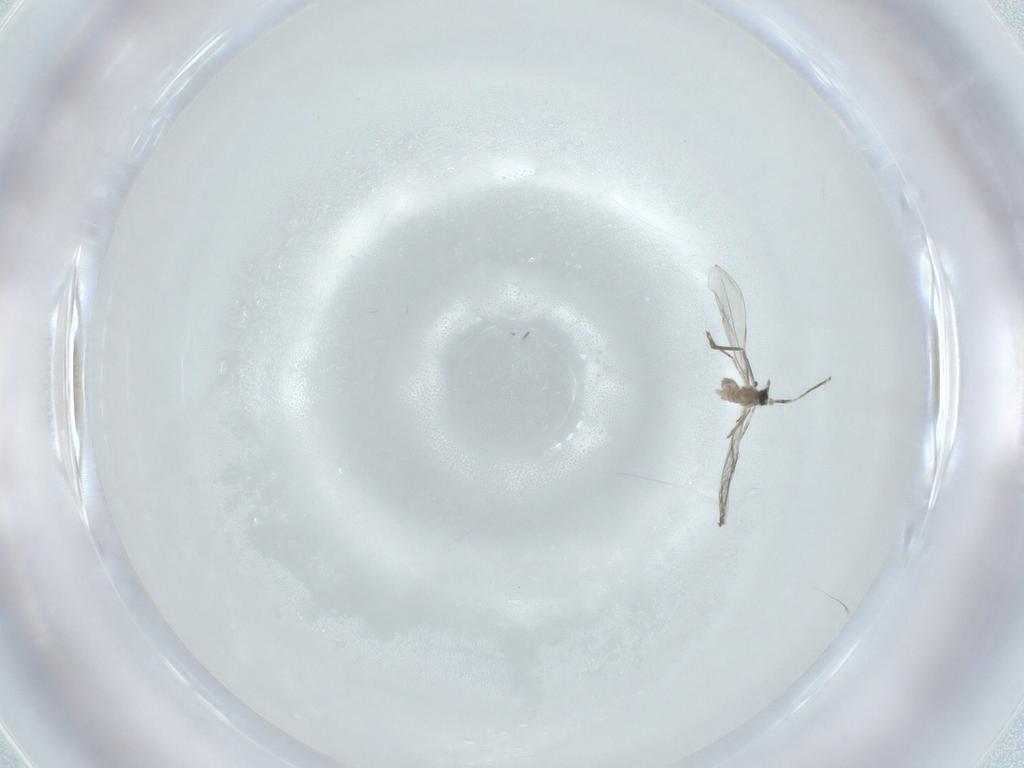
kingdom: Animalia
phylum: Arthropoda
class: Insecta
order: Diptera
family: Cecidomyiidae
